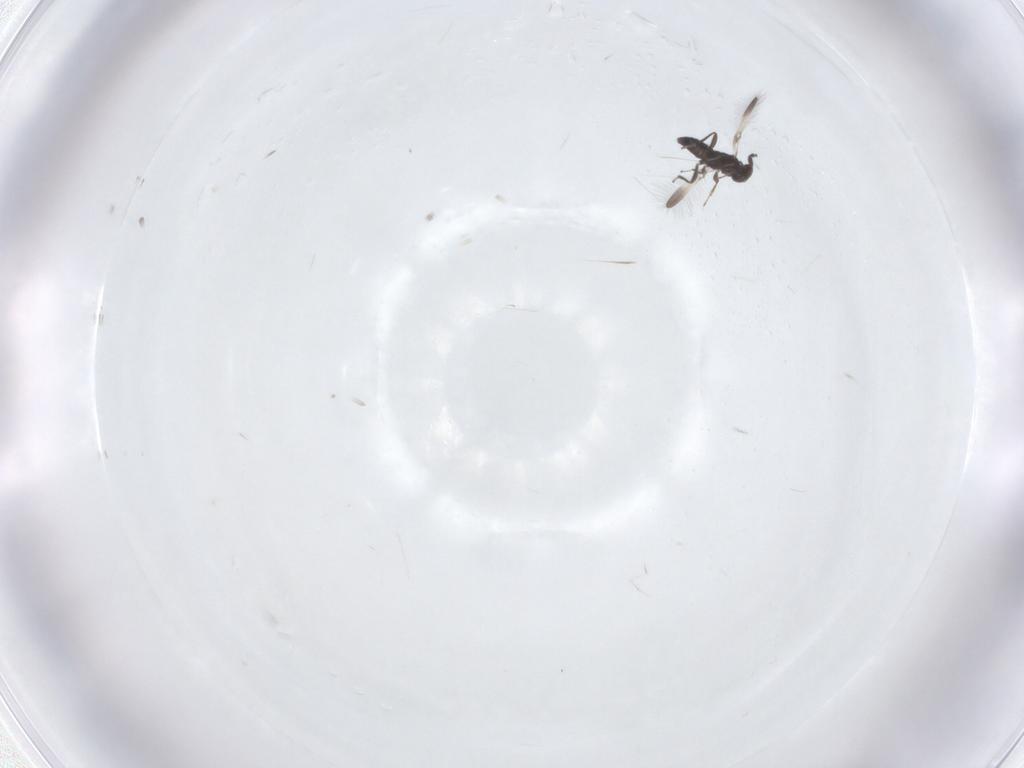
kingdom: Animalia
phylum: Arthropoda
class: Insecta
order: Hymenoptera
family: Mymaridae
